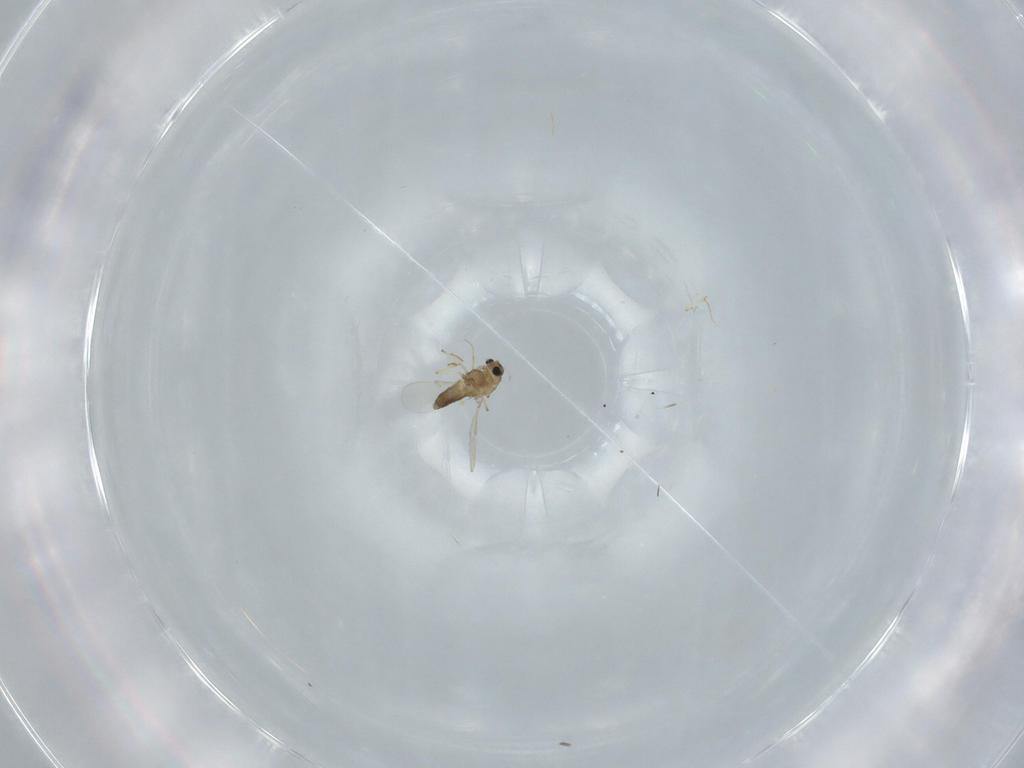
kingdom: Animalia
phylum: Arthropoda
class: Insecta
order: Diptera
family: Chironomidae
